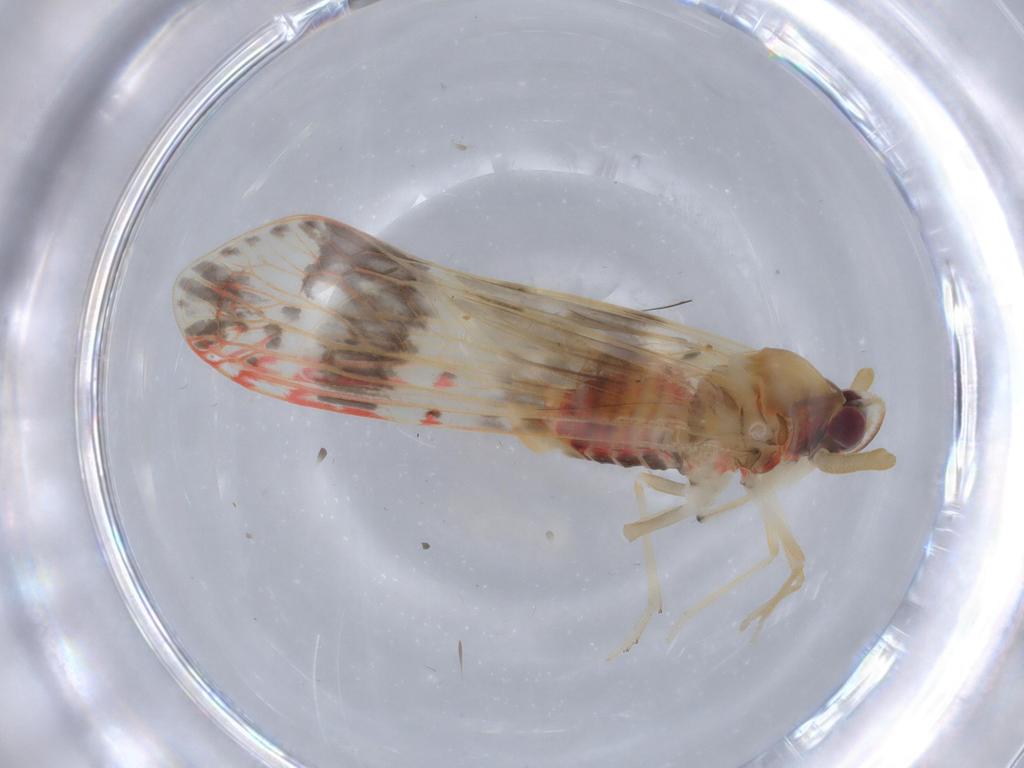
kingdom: Animalia
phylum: Arthropoda
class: Insecta
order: Hemiptera
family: Derbidae
